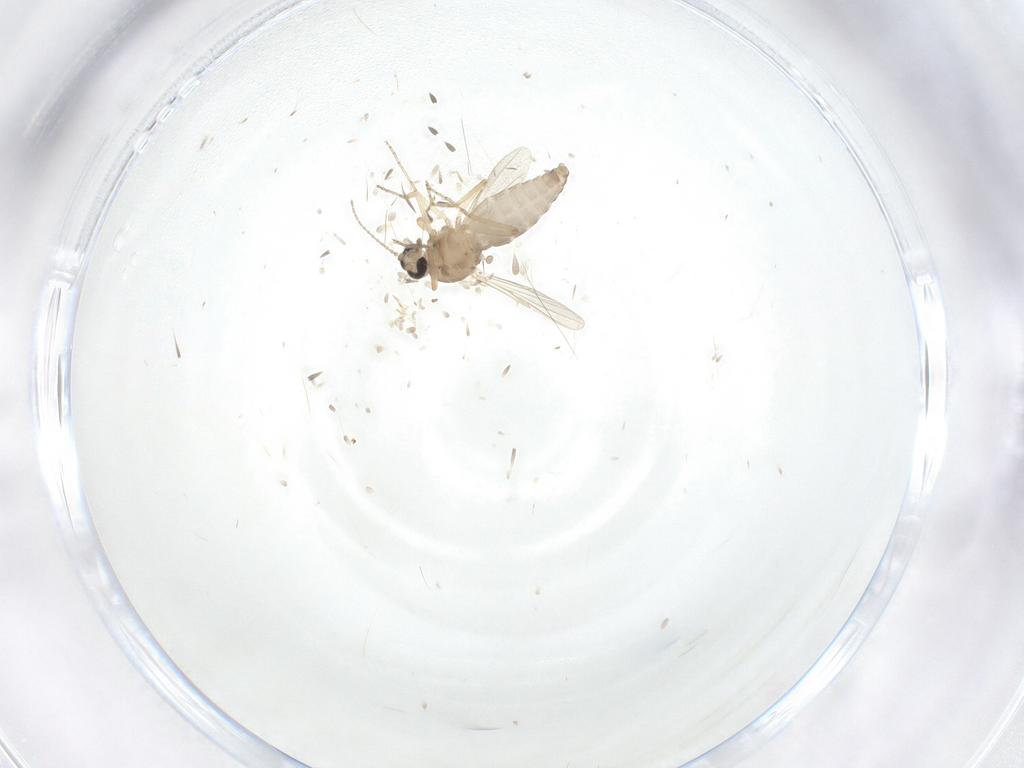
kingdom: Animalia
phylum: Arthropoda
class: Insecta
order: Diptera
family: Ceratopogonidae
